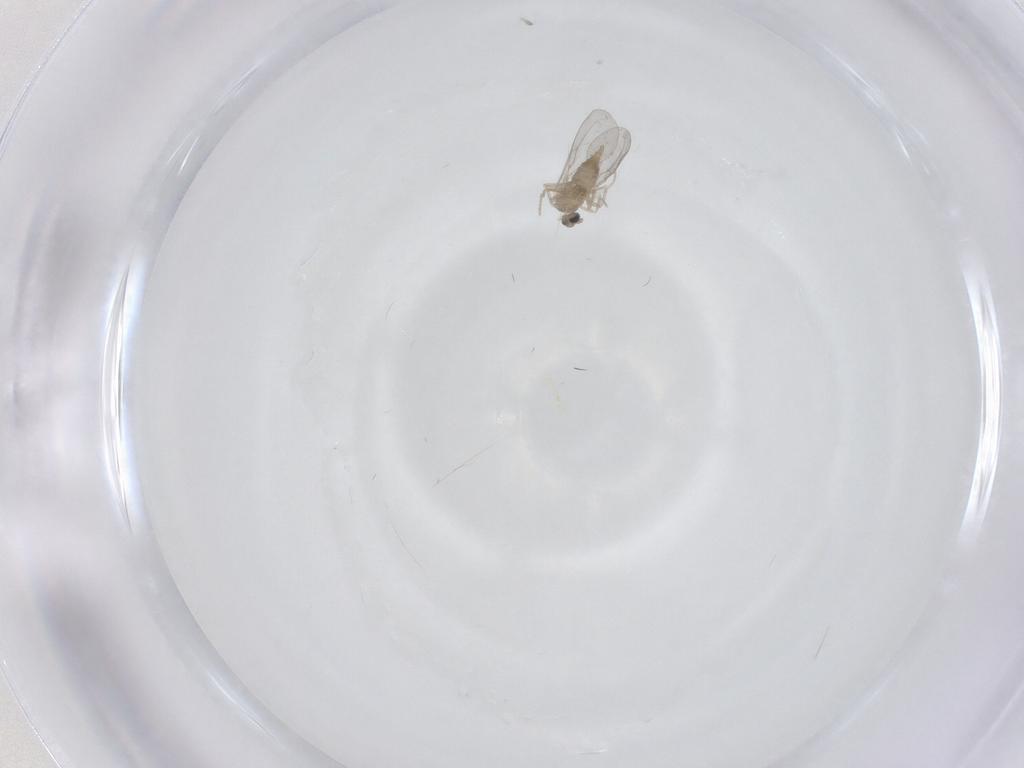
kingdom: Animalia
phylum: Arthropoda
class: Insecta
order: Diptera
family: Cecidomyiidae
